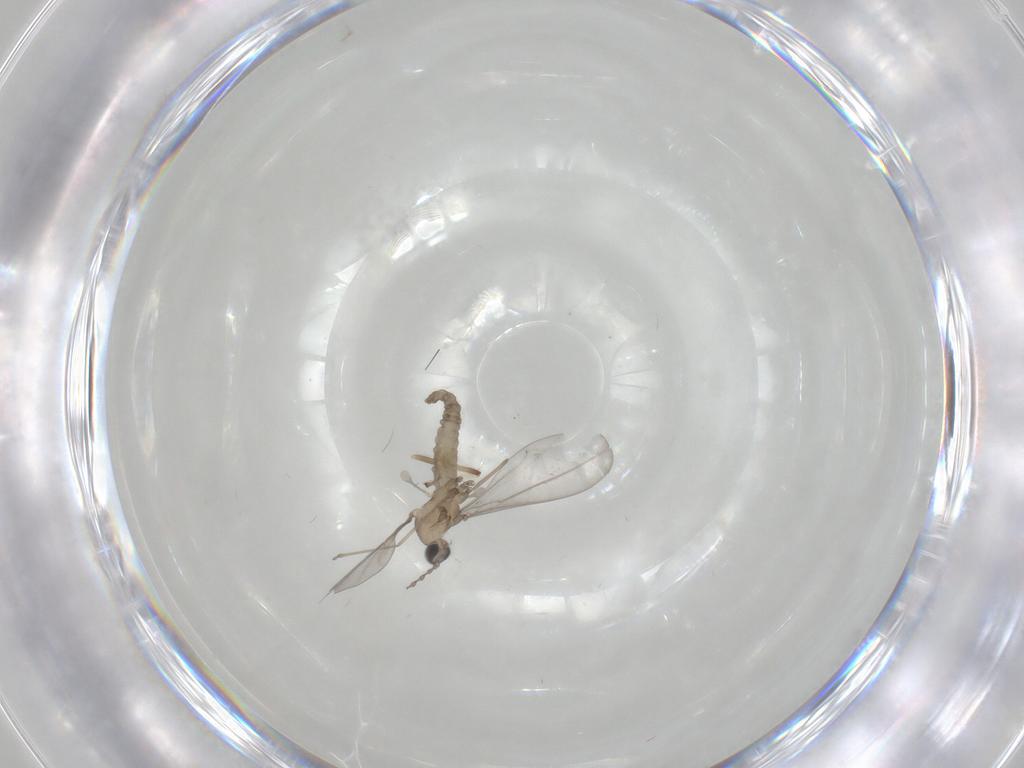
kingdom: Animalia
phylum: Arthropoda
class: Insecta
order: Diptera
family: Cecidomyiidae
